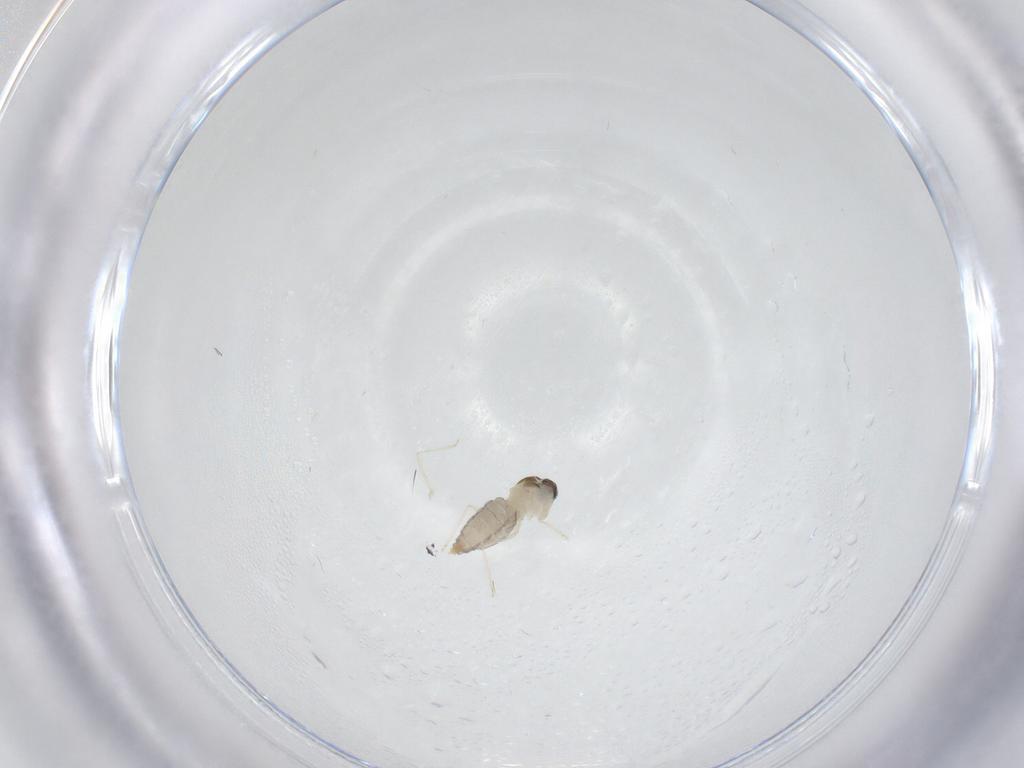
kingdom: Animalia
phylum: Arthropoda
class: Insecta
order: Diptera
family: Cecidomyiidae
